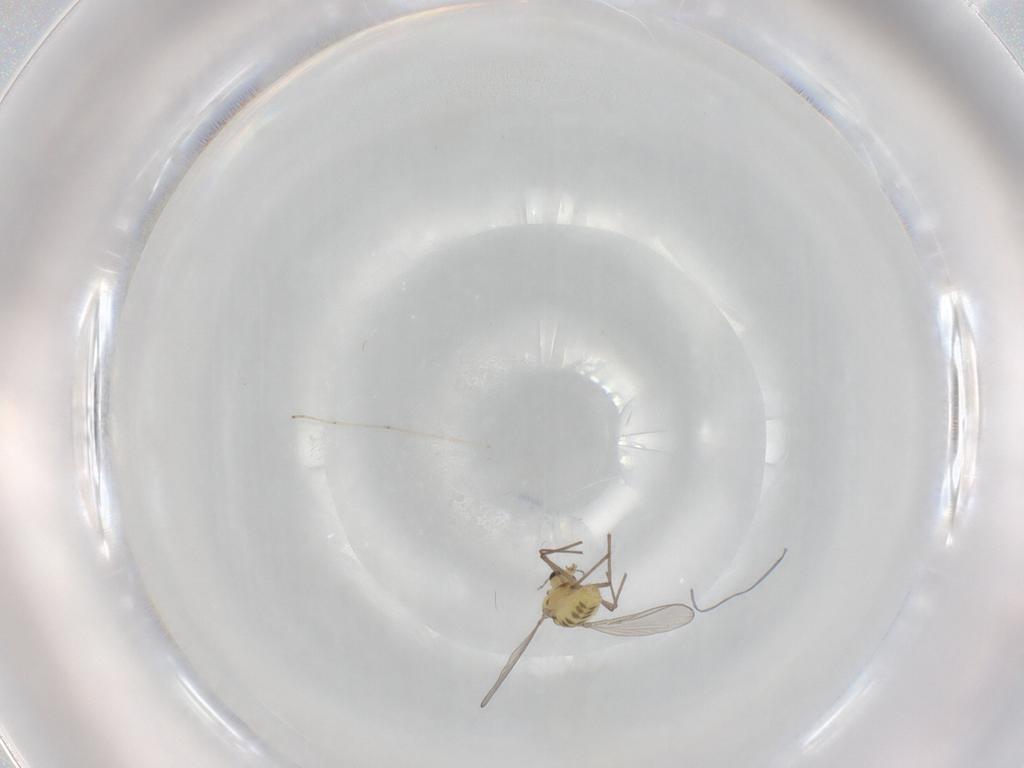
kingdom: Animalia
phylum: Arthropoda
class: Insecta
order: Diptera
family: Chironomidae
